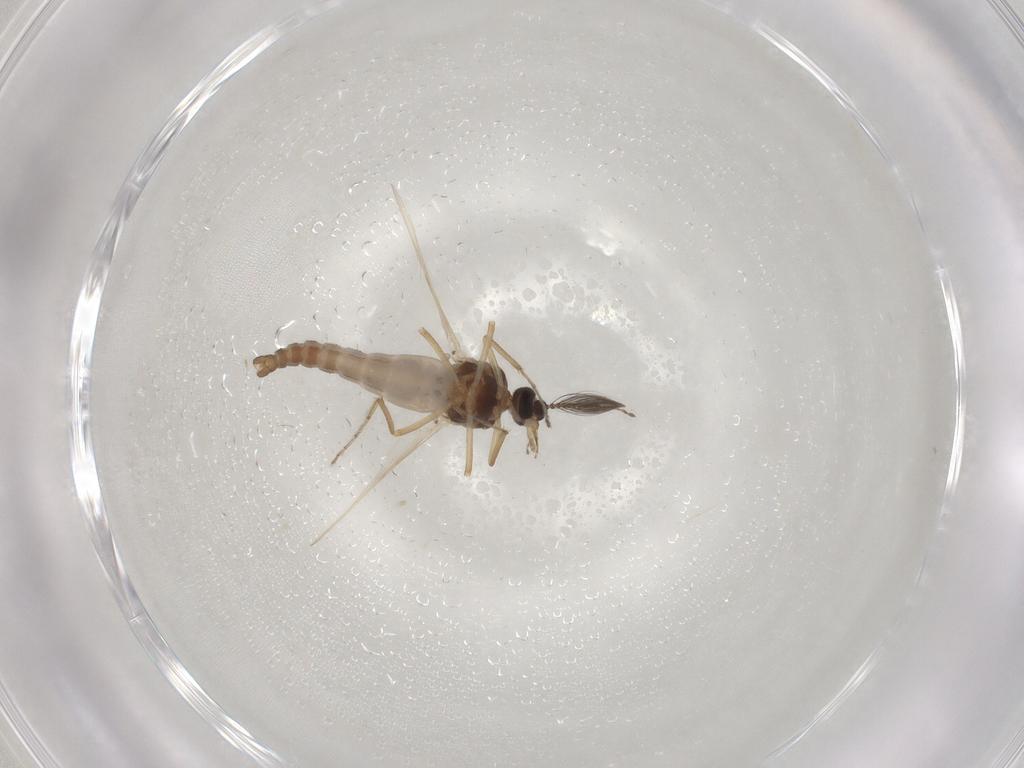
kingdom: Animalia
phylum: Arthropoda
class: Insecta
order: Diptera
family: Ceratopogonidae
